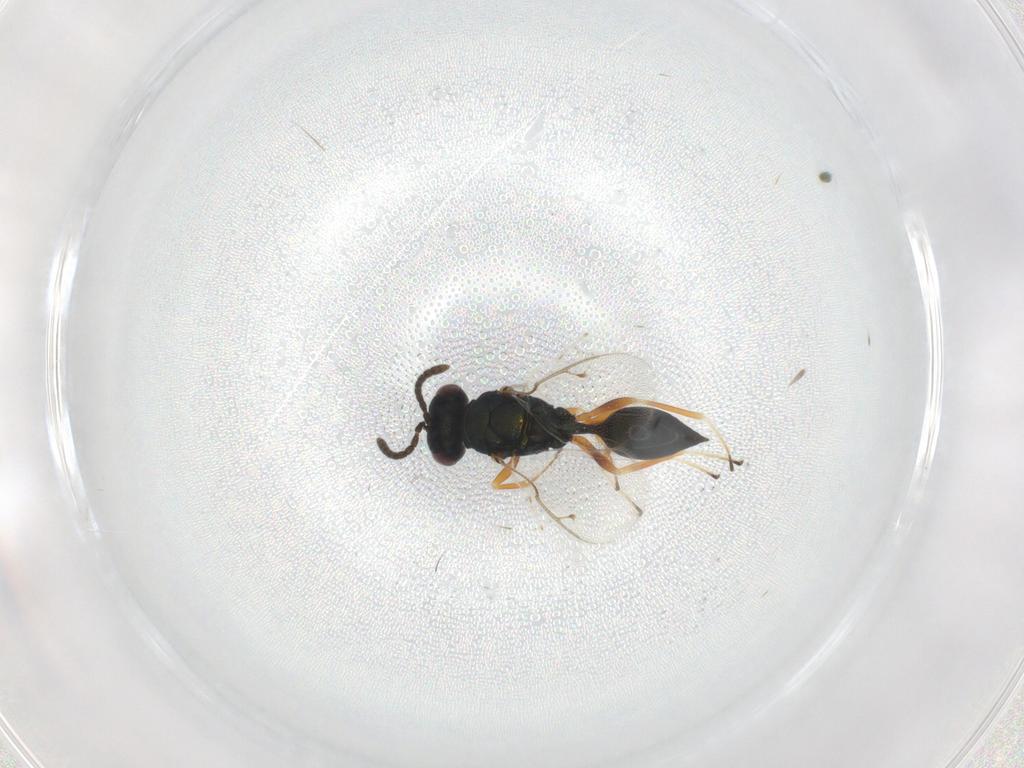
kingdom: Animalia
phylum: Arthropoda
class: Insecta
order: Hymenoptera
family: Pteromalidae
